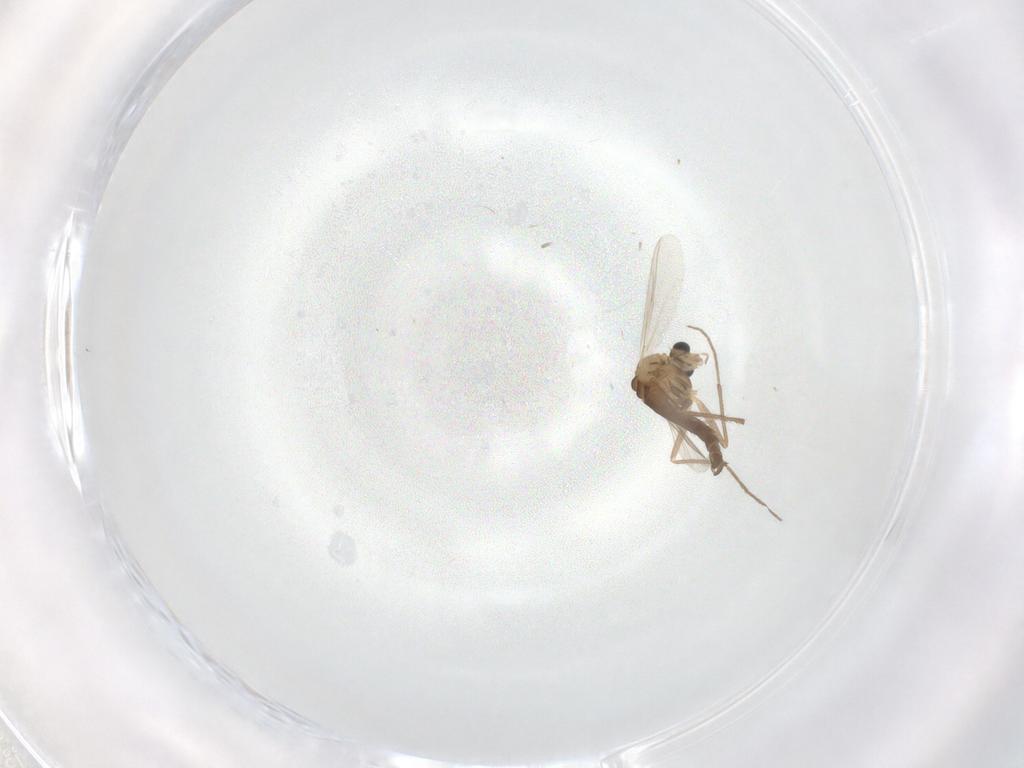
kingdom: Animalia
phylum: Arthropoda
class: Insecta
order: Diptera
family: Chironomidae
